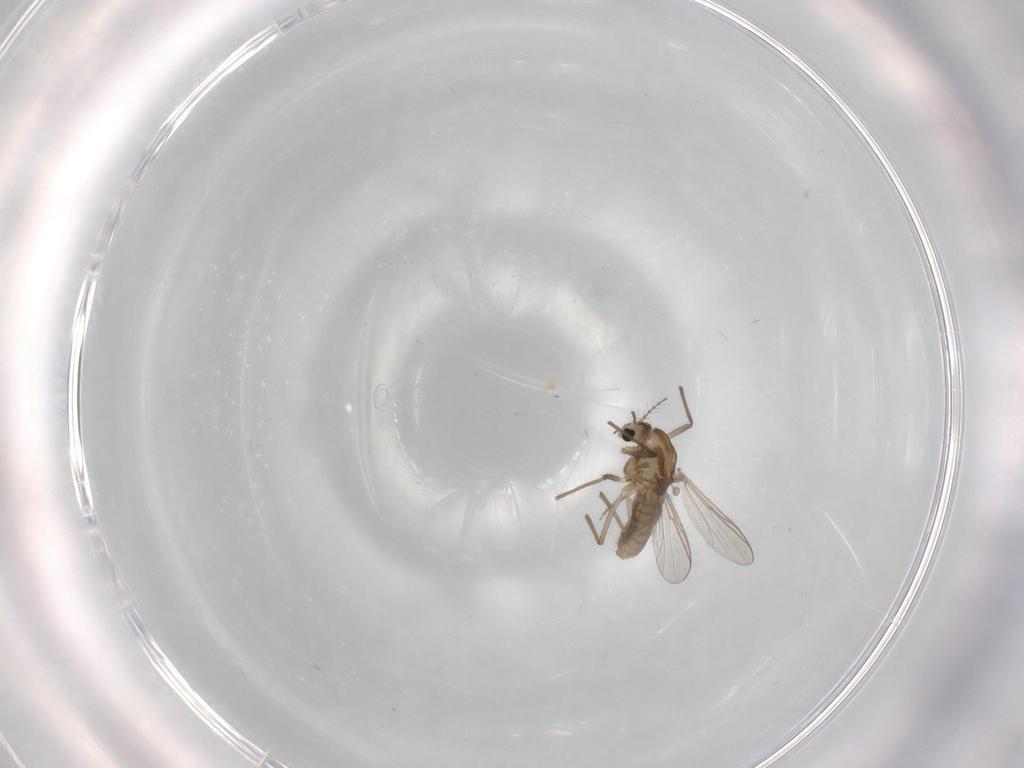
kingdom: Animalia
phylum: Arthropoda
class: Insecta
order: Diptera
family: Chironomidae
